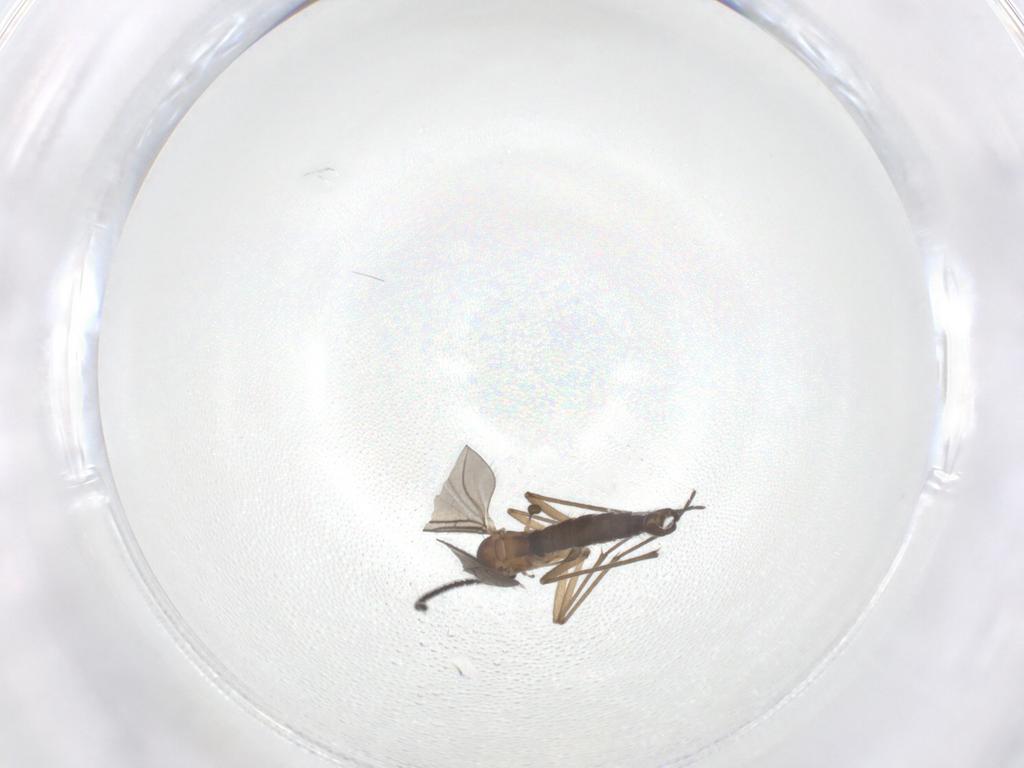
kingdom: Animalia
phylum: Arthropoda
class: Insecta
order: Diptera
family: Sciaridae
